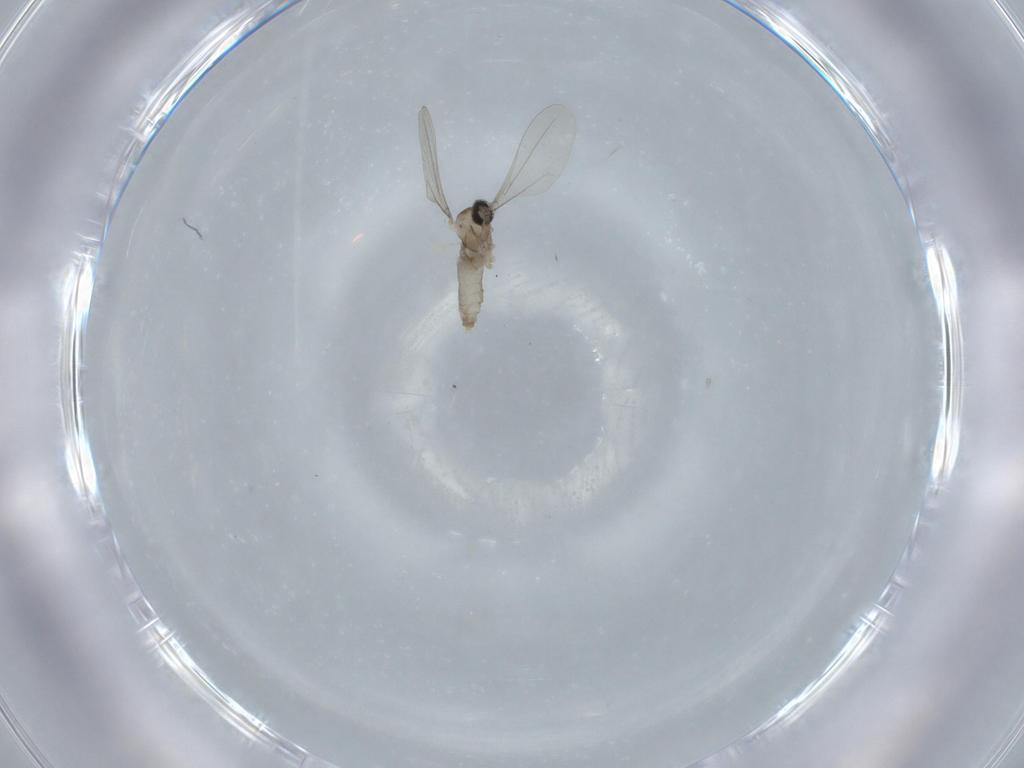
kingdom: Animalia
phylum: Arthropoda
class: Insecta
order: Diptera
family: Cecidomyiidae
